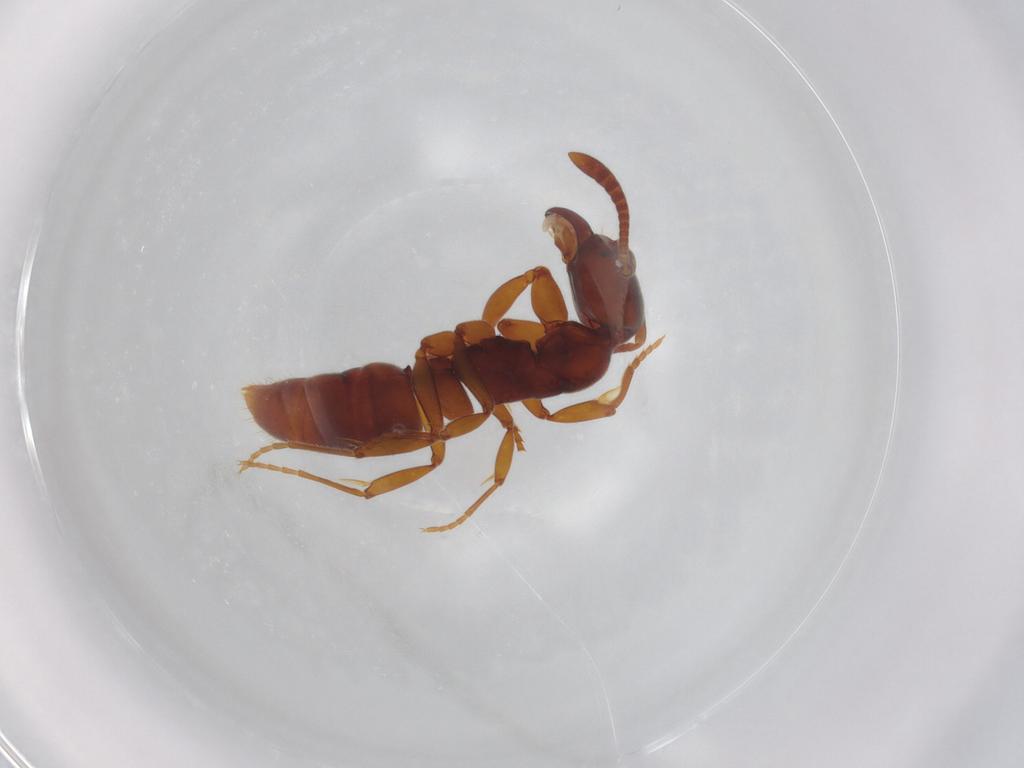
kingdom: Animalia
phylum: Arthropoda
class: Insecta
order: Hymenoptera
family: Formicidae
